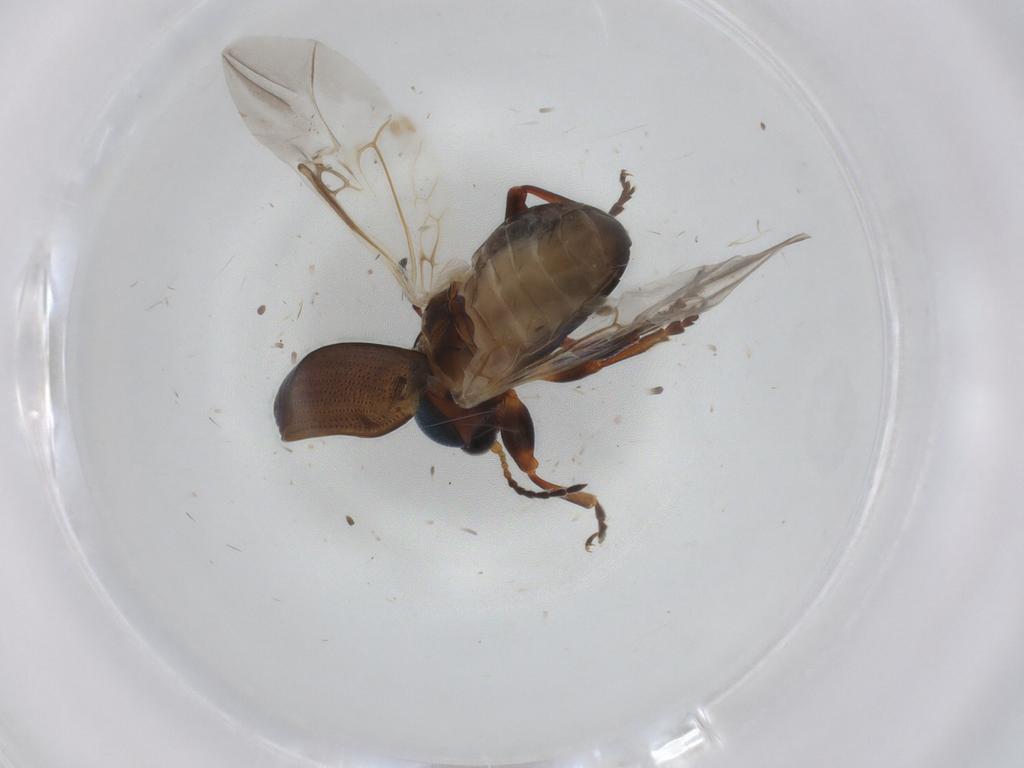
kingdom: Animalia
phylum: Arthropoda
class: Insecta
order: Coleoptera
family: Chrysomelidae
